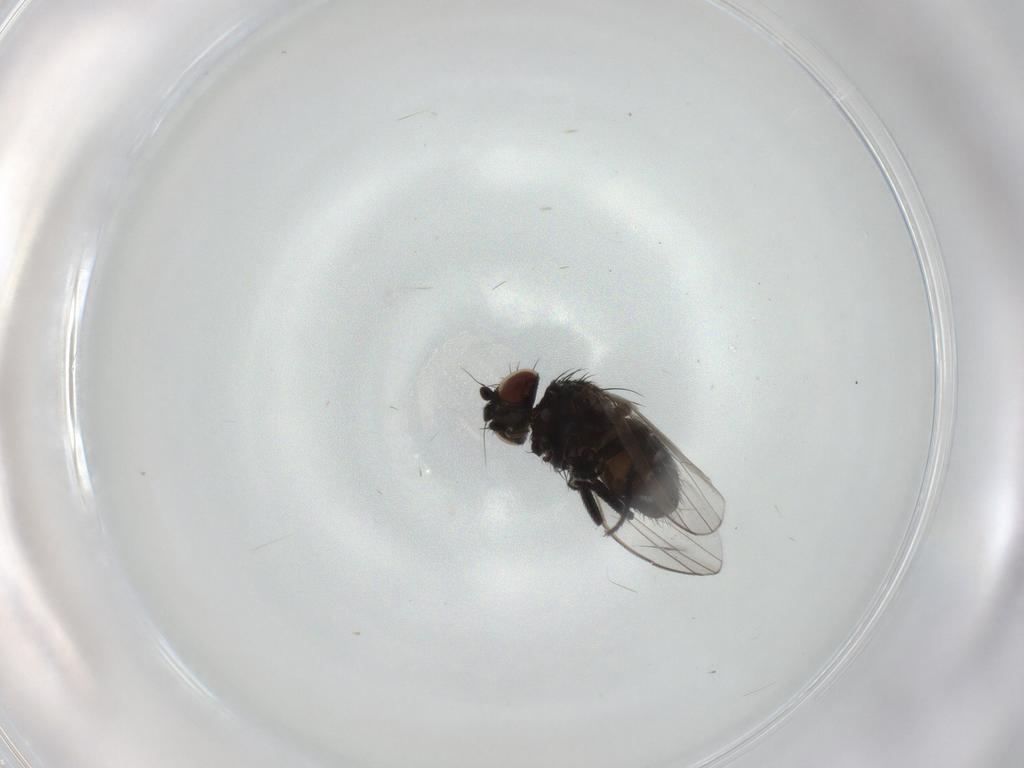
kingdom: Animalia
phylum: Arthropoda
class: Insecta
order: Diptera
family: Milichiidae
